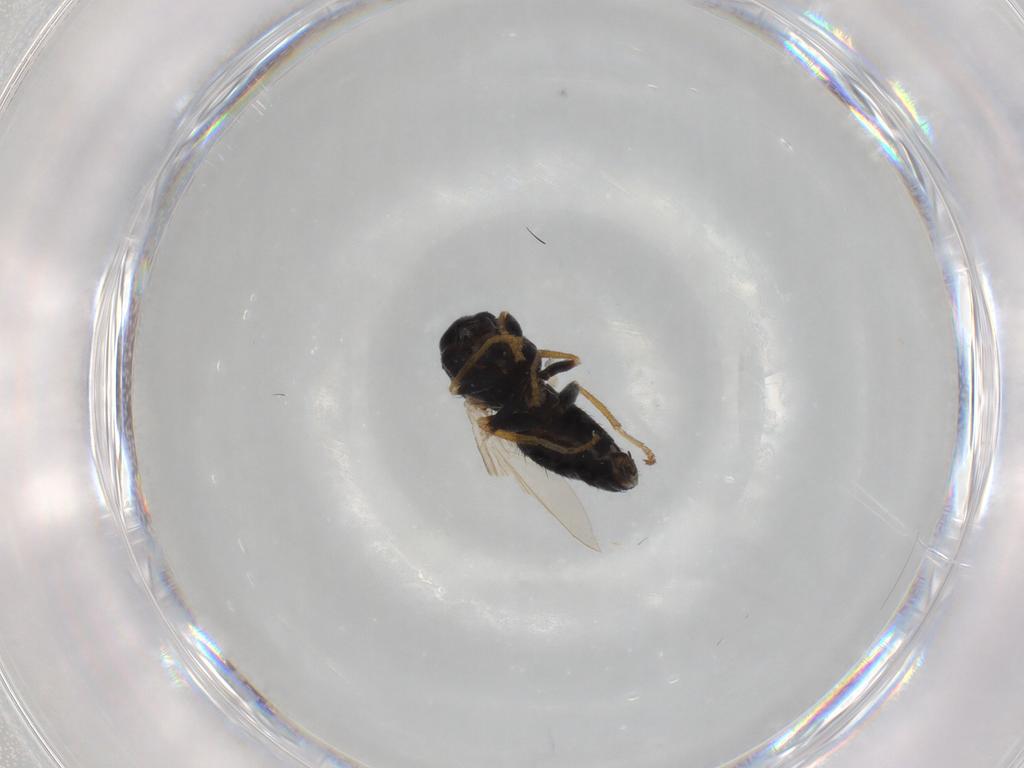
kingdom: Animalia
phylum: Arthropoda
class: Insecta
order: Diptera
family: Chamaemyiidae
